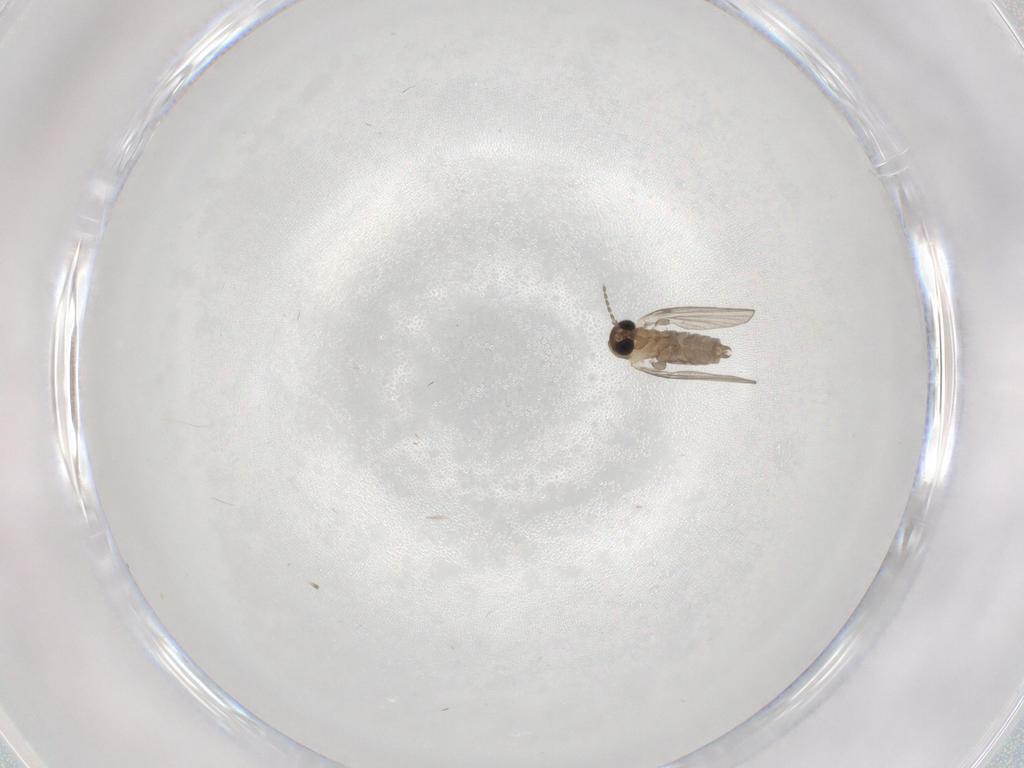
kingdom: Animalia
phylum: Arthropoda
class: Insecta
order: Diptera
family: Psychodidae
